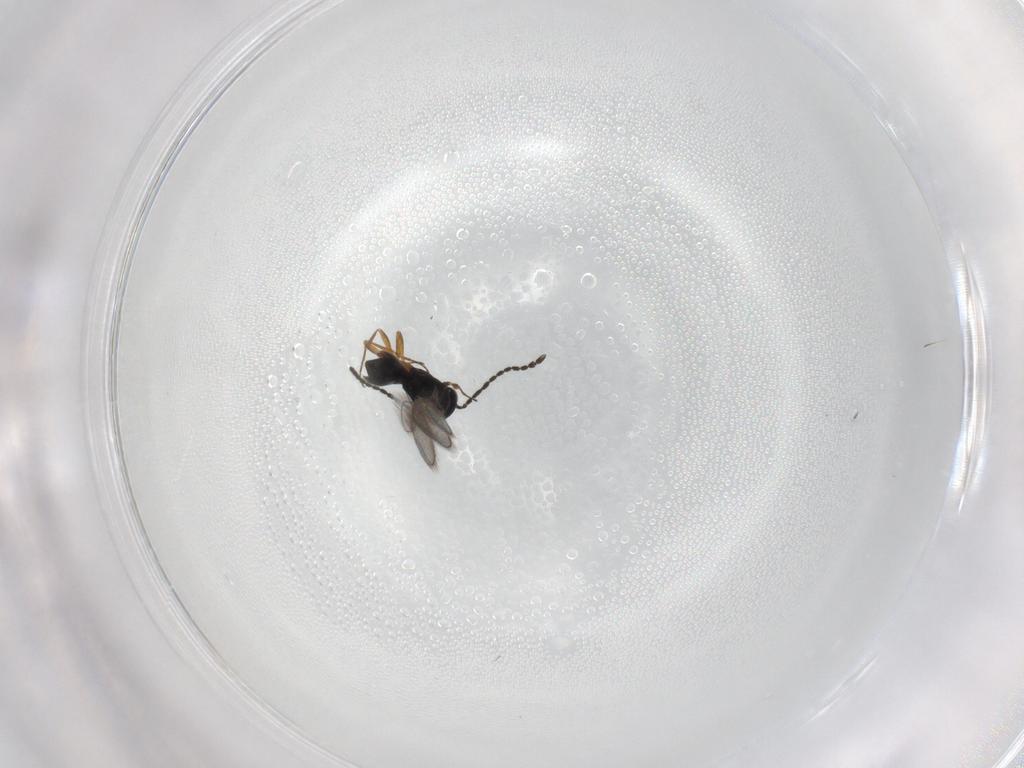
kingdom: Animalia
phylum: Arthropoda
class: Insecta
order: Hymenoptera
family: Scelionidae
